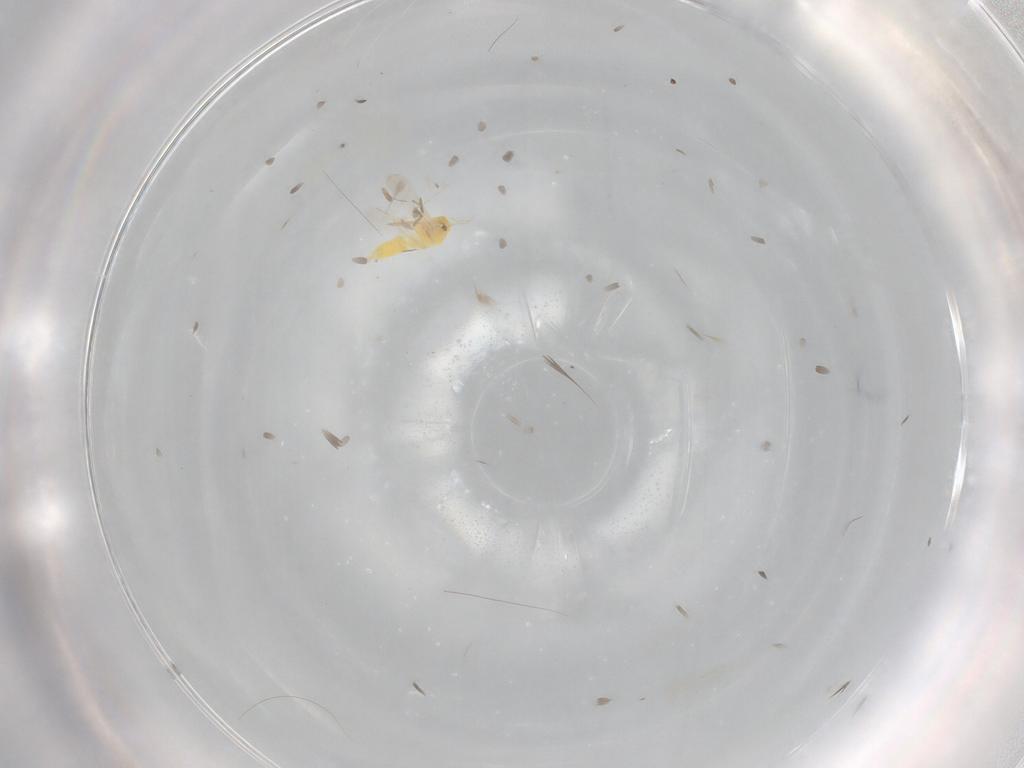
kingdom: Animalia
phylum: Arthropoda
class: Insecta
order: Hemiptera
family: Aleyrodidae
